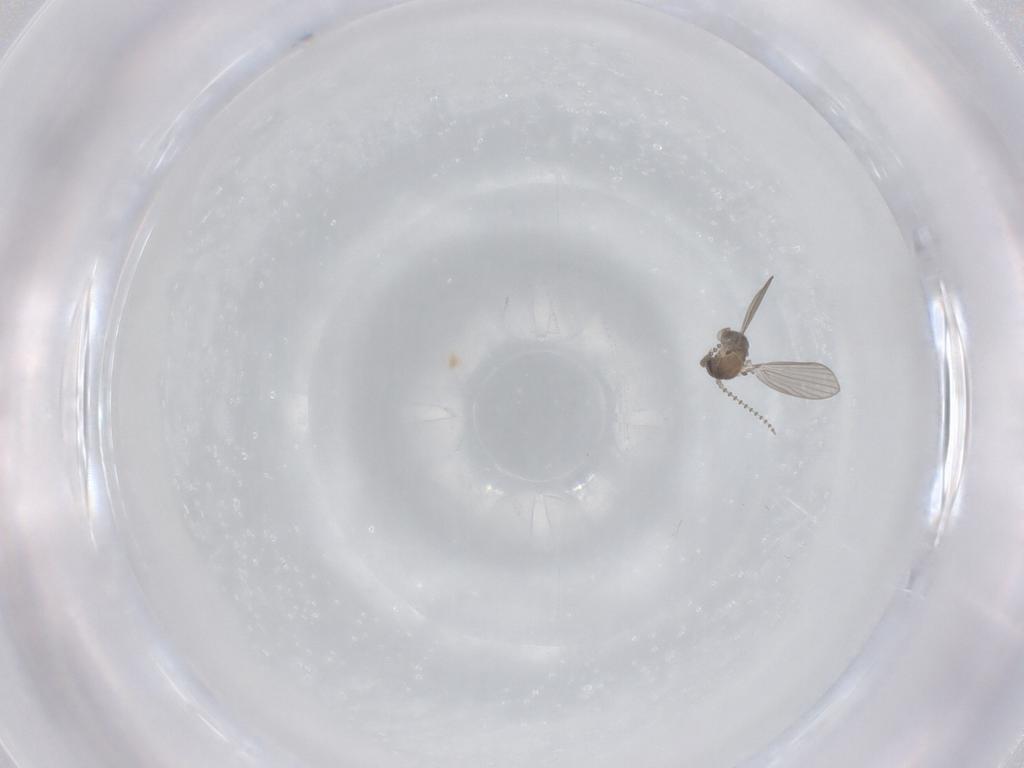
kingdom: Animalia
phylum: Arthropoda
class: Insecta
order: Diptera
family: Psychodidae
